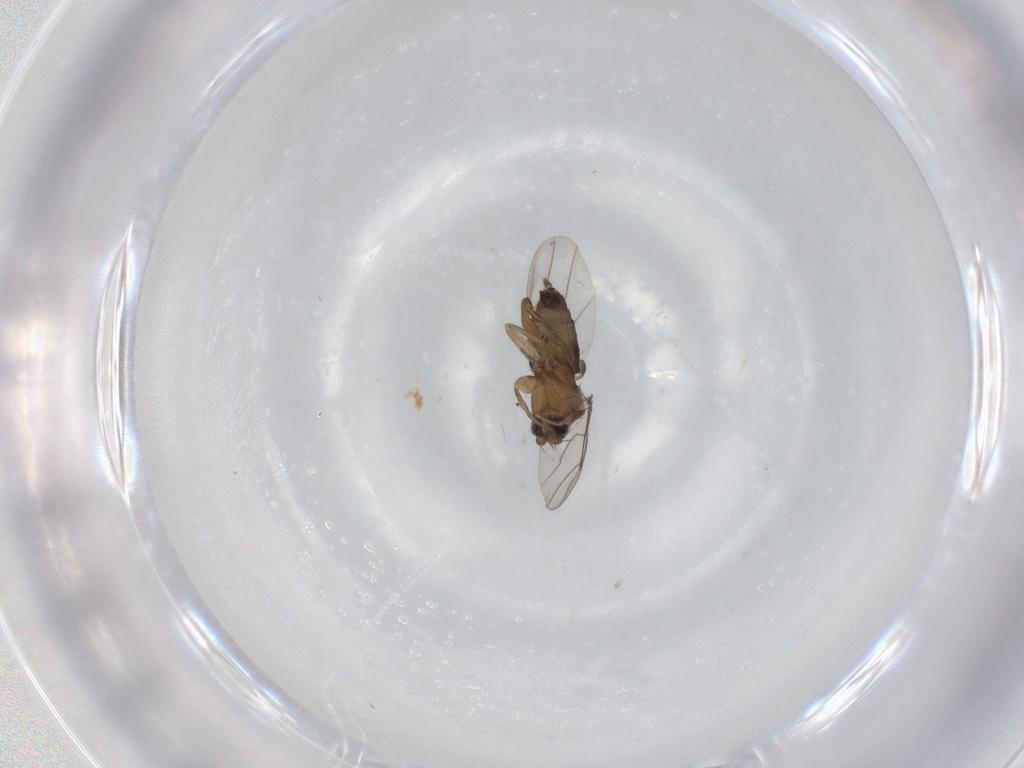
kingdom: Animalia
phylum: Arthropoda
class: Insecta
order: Diptera
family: Phoridae
